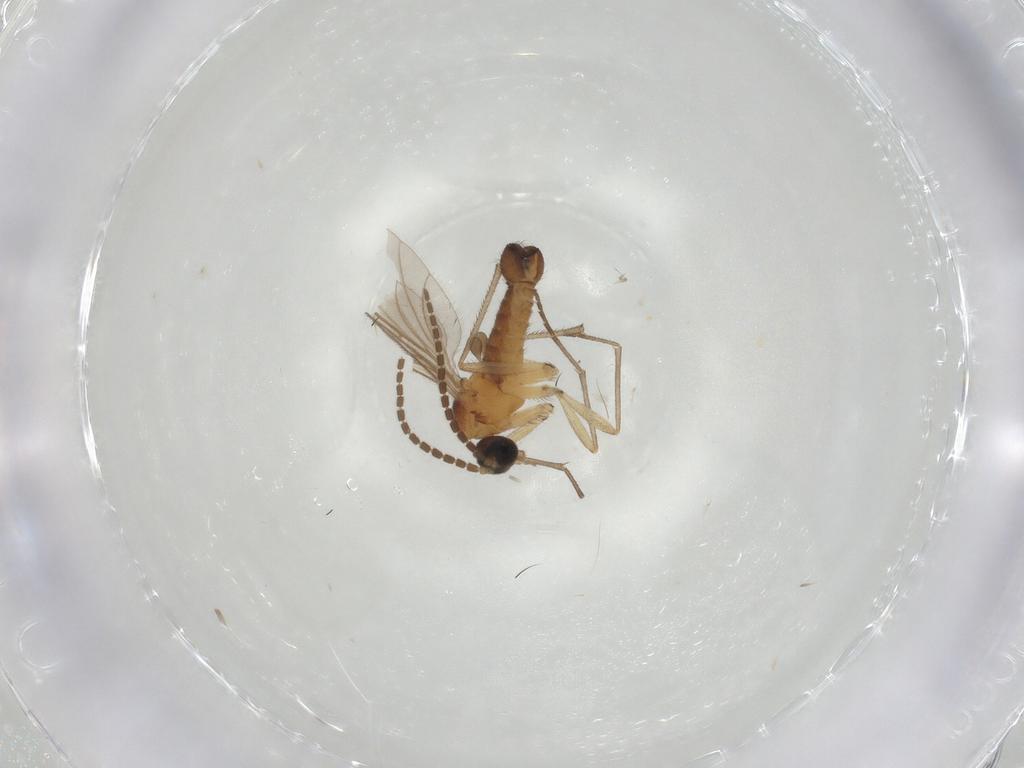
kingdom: Animalia
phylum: Arthropoda
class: Insecta
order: Diptera
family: Sciaridae
